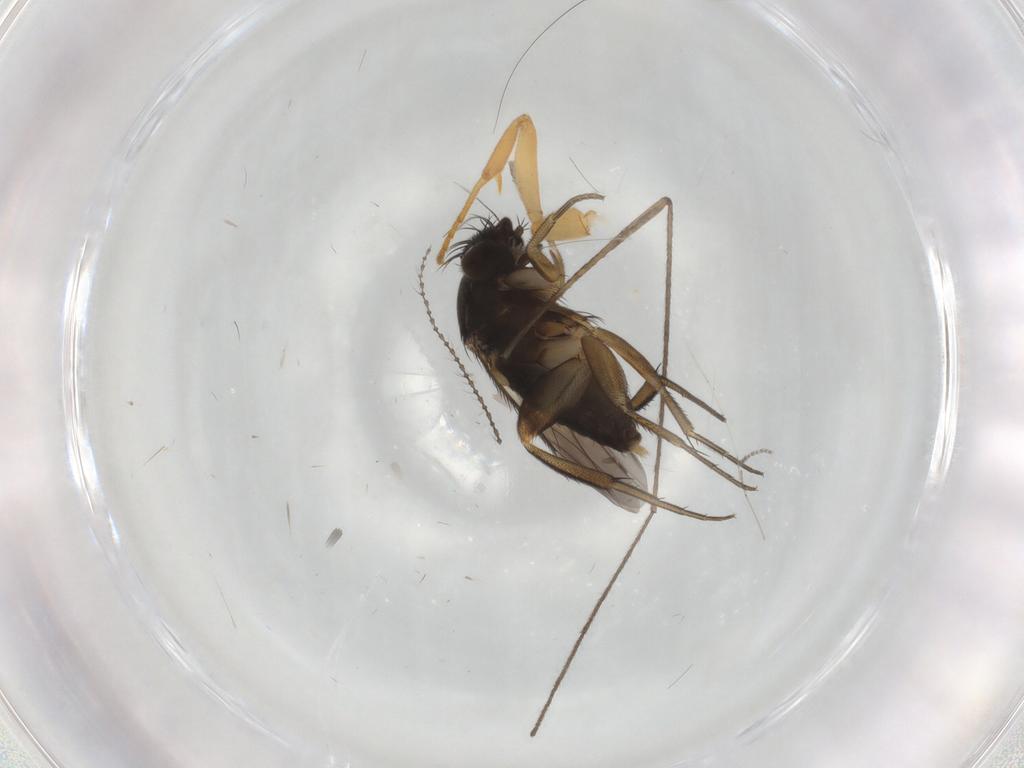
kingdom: Animalia
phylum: Arthropoda
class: Insecta
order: Diptera
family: Phoridae
